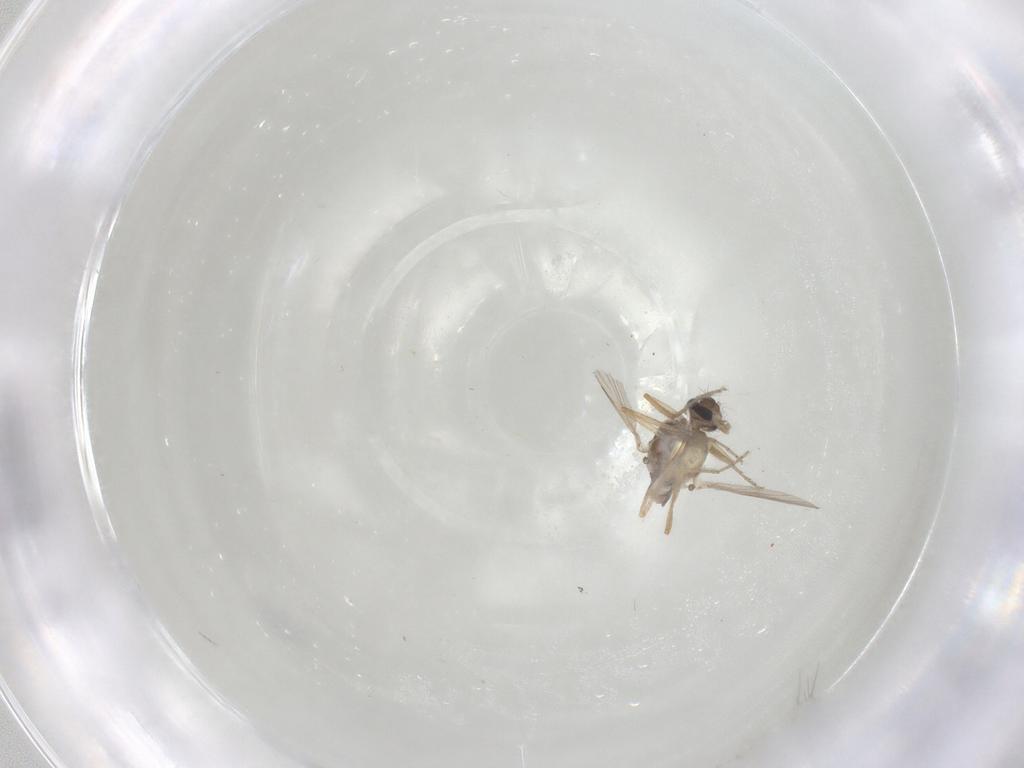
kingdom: Animalia
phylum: Arthropoda
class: Insecta
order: Diptera
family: Ceratopogonidae
